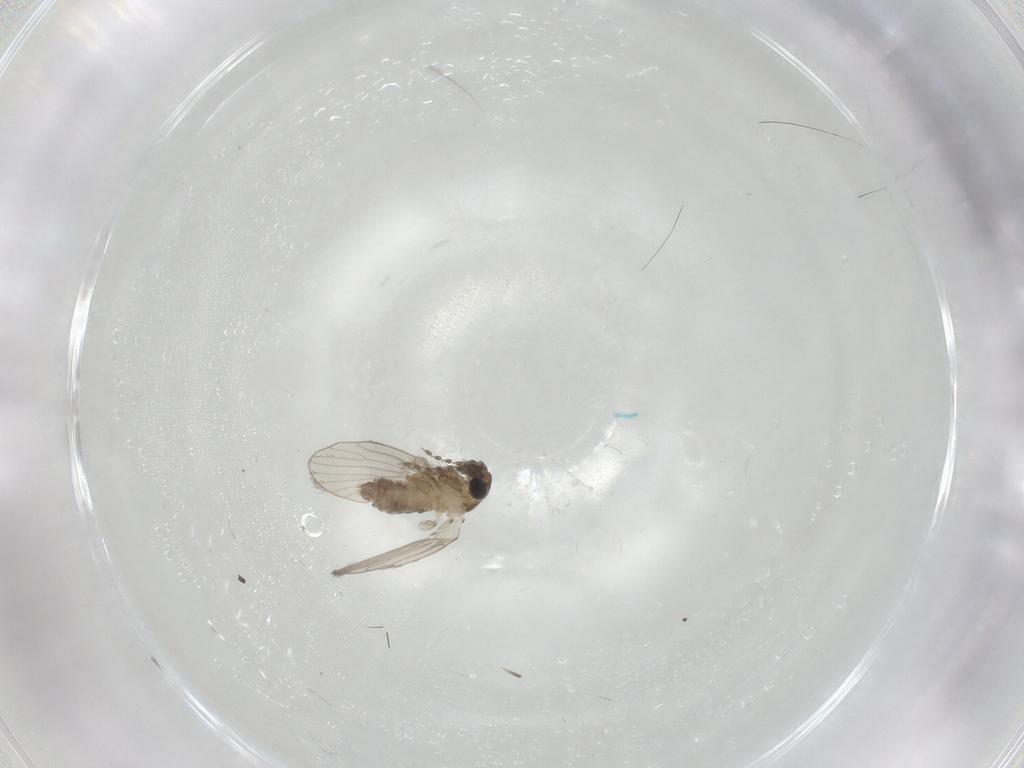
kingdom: Animalia
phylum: Arthropoda
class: Insecta
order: Diptera
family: Psychodidae
